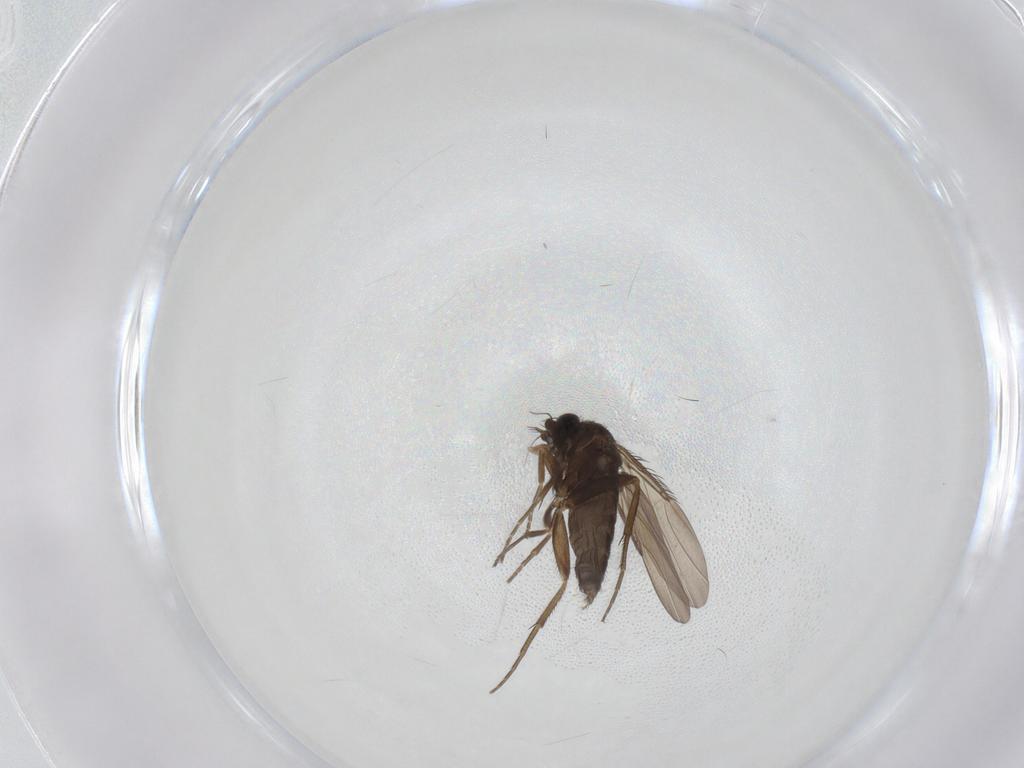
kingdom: Animalia
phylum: Arthropoda
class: Insecta
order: Diptera
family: Phoridae
